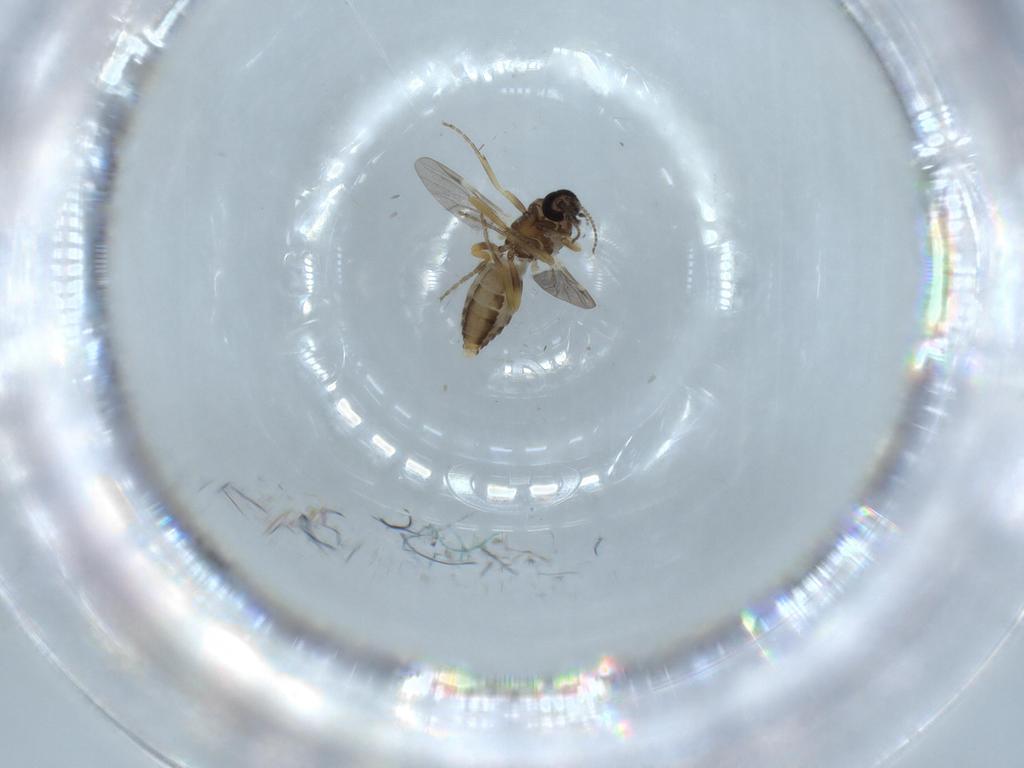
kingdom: Animalia
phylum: Arthropoda
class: Insecta
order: Diptera
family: Ceratopogonidae
